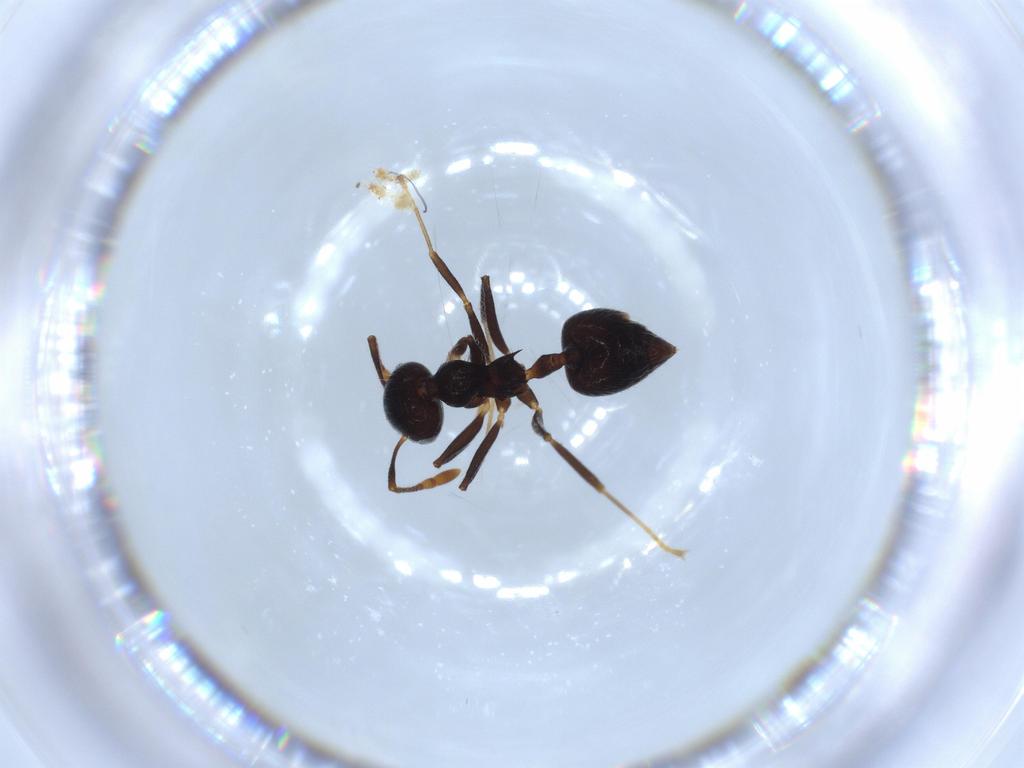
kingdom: Animalia
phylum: Arthropoda
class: Insecta
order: Hymenoptera
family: Formicidae
